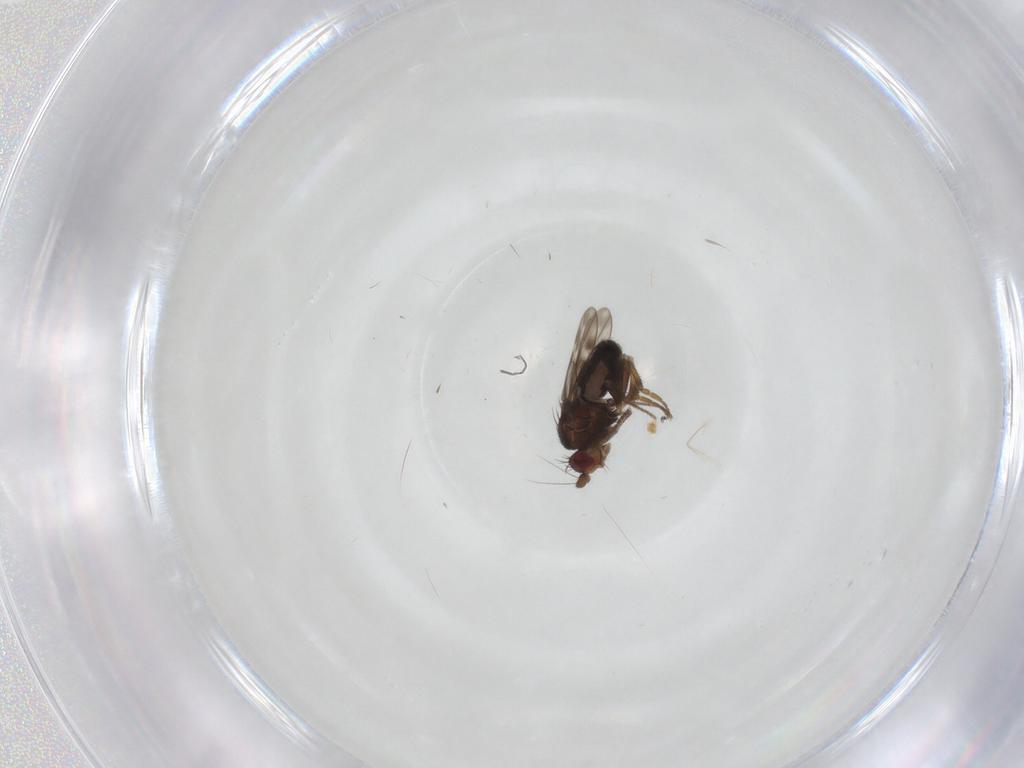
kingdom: Animalia
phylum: Arthropoda
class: Insecta
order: Diptera
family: Sphaeroceridae
